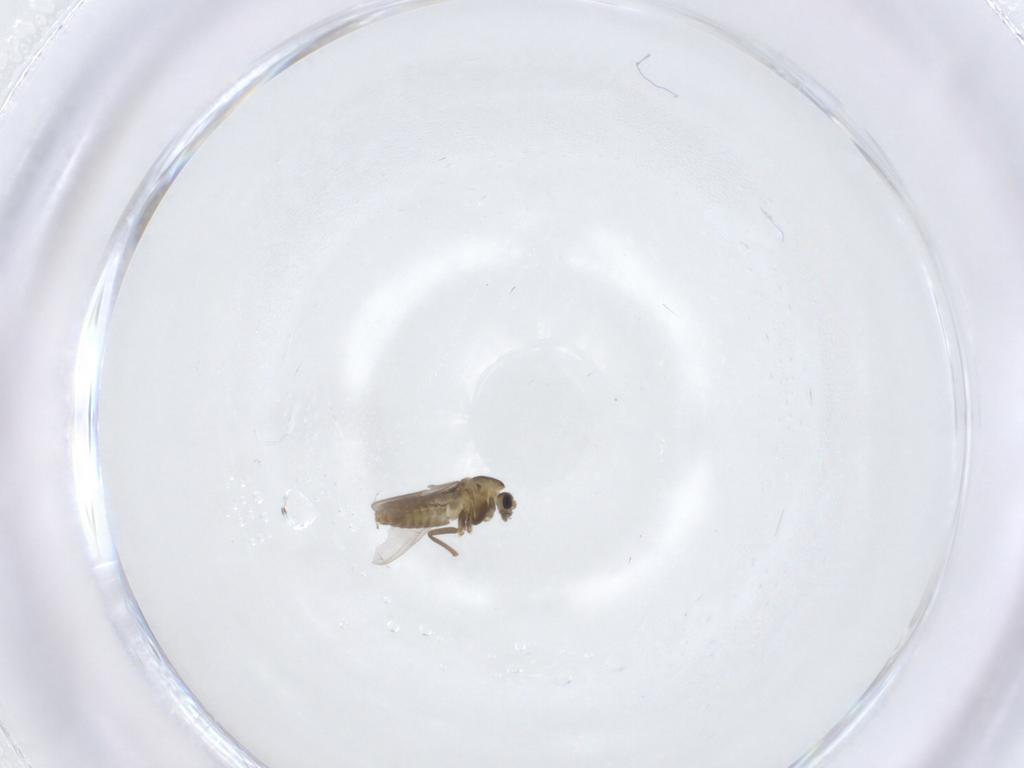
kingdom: Animalia
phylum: Arthropoda
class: Insecta
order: Diptera
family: Chironomidae
